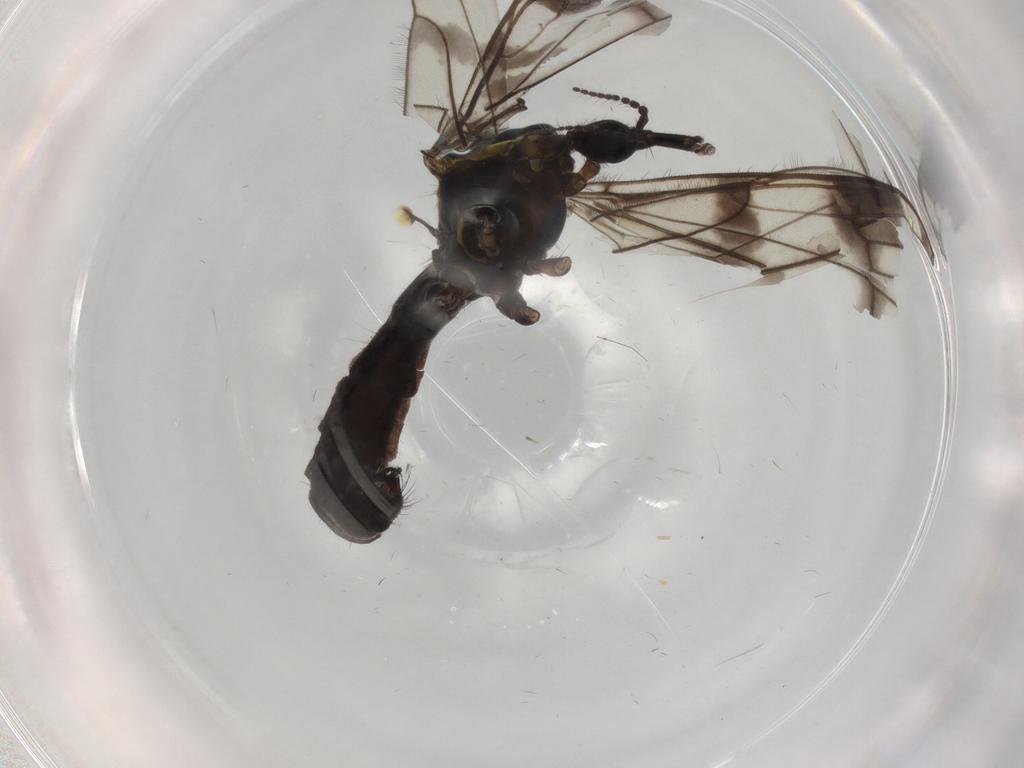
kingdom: Animalia
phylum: Arthropoda
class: Insecta
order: Diptera
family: Limoniidae
